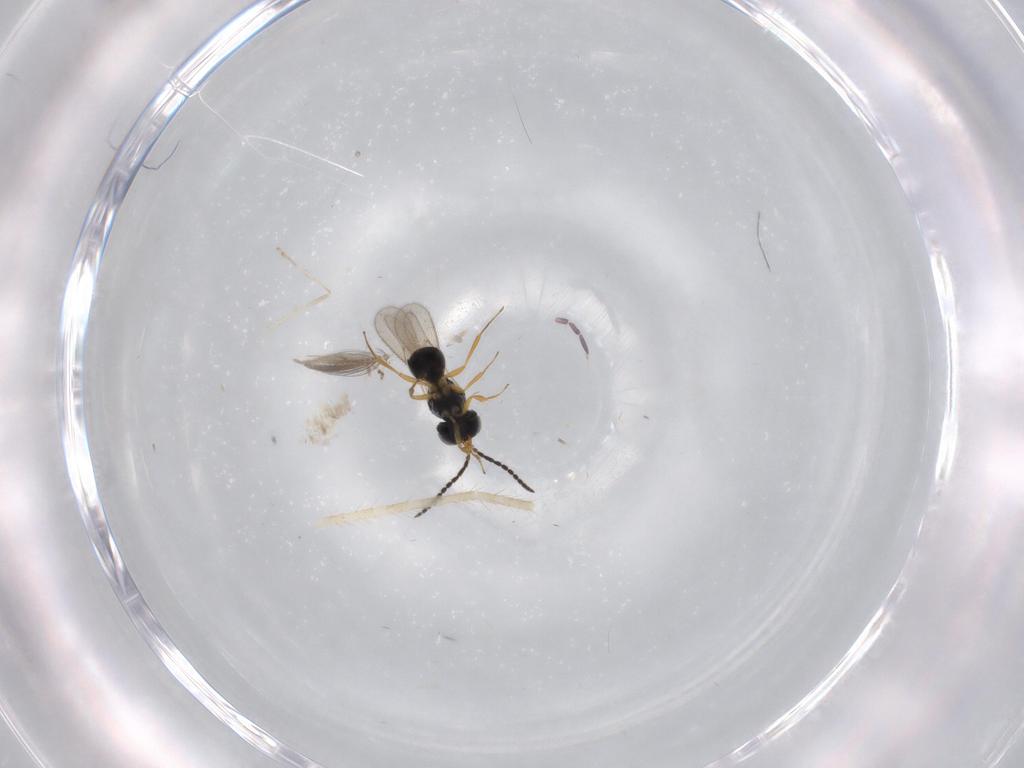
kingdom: Animalia
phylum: Arthropoda
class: Insecta
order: Hymenoptera
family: Scelionidae
